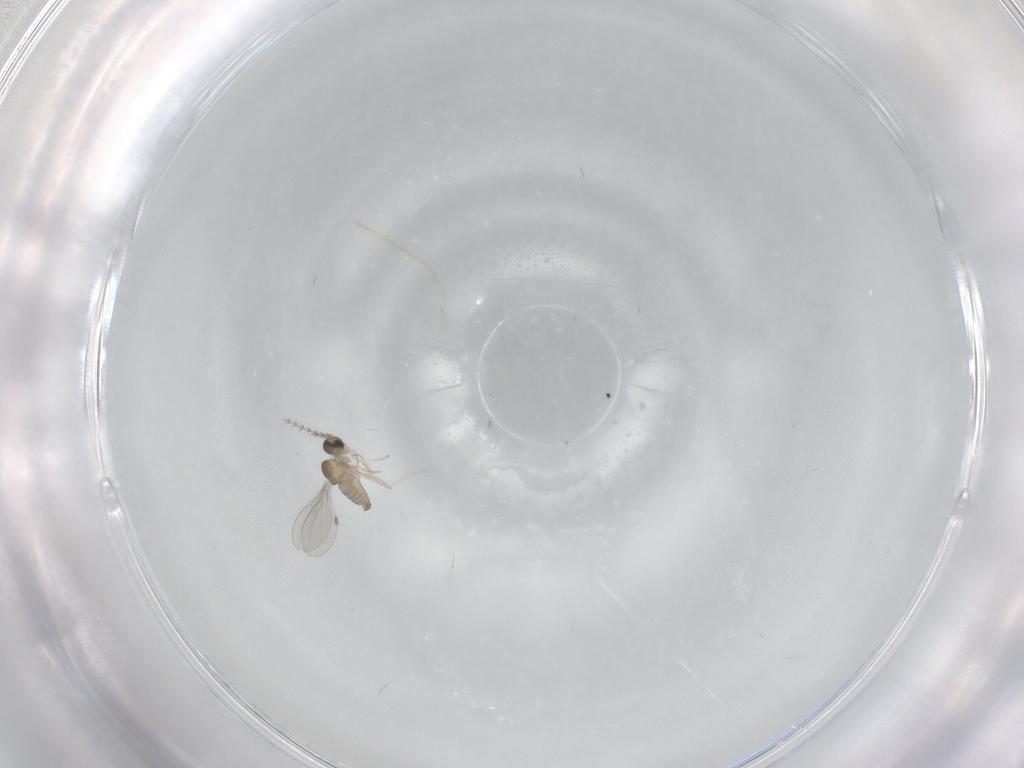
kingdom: Animalia
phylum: Arthropoda
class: Insecta
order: Diptera
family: Cecidomyiidae
